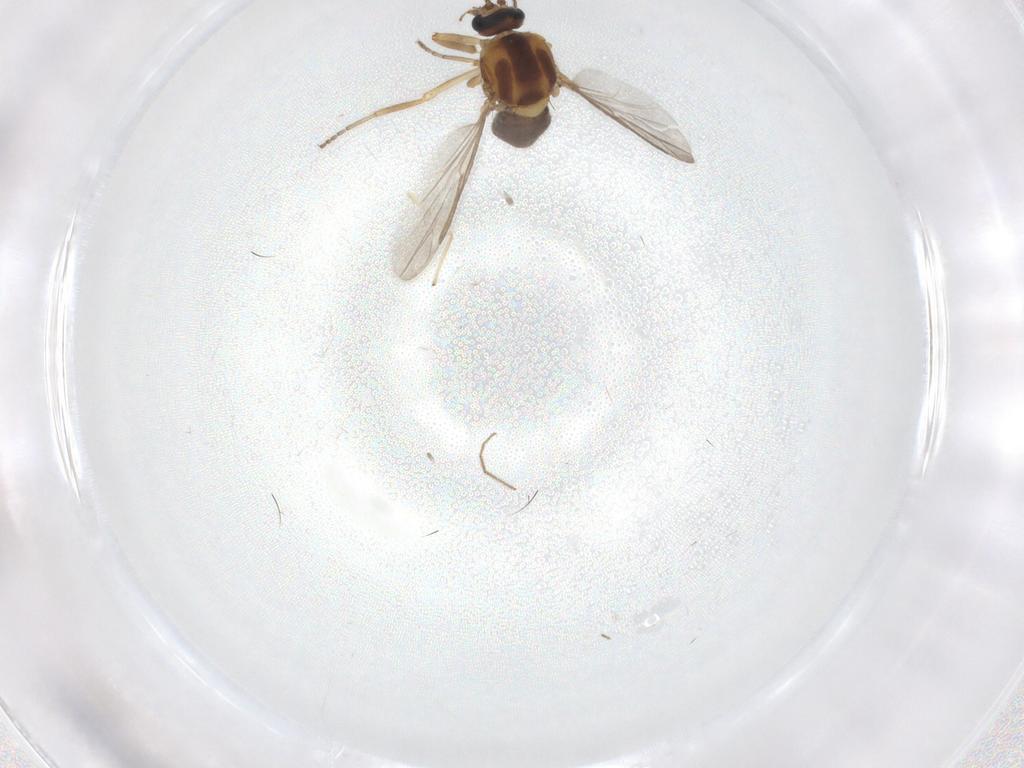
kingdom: Animalia
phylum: Arthropoda
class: Insecta
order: Diptera
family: Ceratopogonidae
